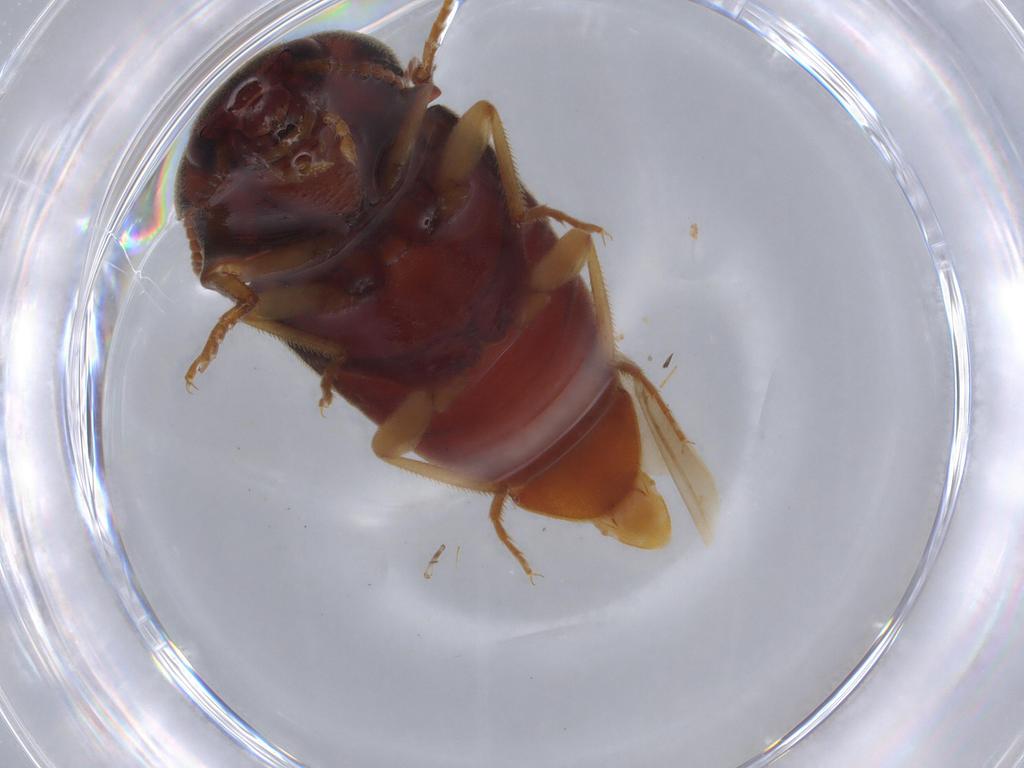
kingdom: Animalia
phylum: Arthropoda
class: Insecta
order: Coleoptera
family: Elateridae
